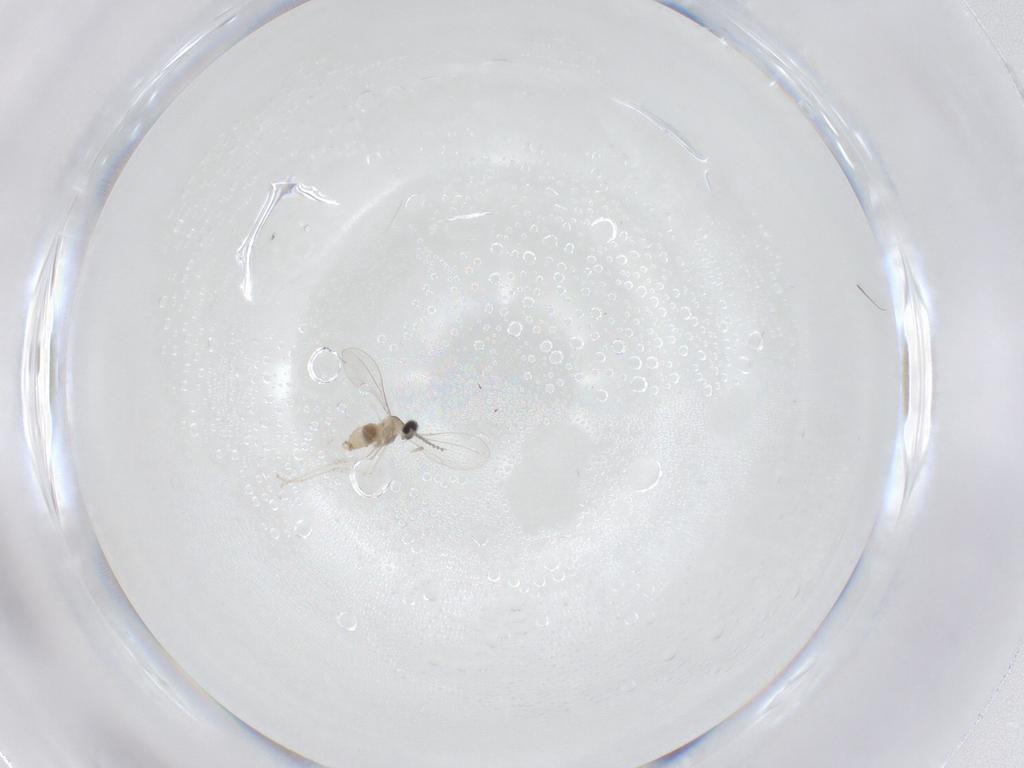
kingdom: Animalia
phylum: Arthropoda
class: Insecta
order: Diptera
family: Cecidomyiidae
